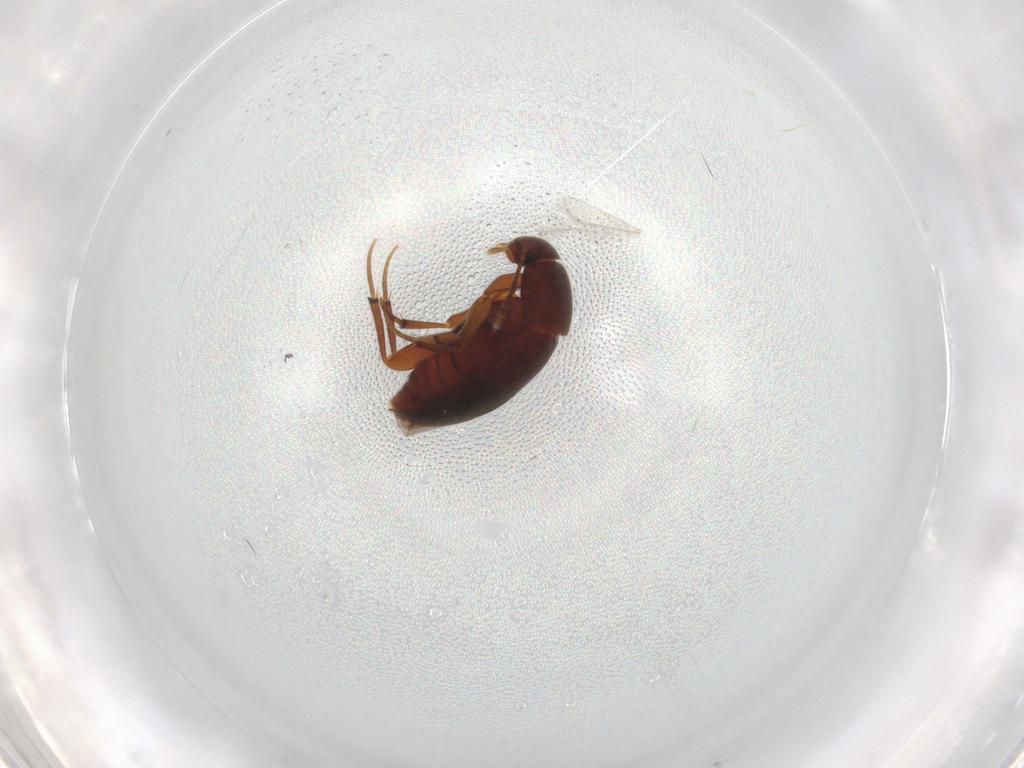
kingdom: Animalia
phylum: Arthropoda
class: Insecta
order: Coleoptera
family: Leiodidae
